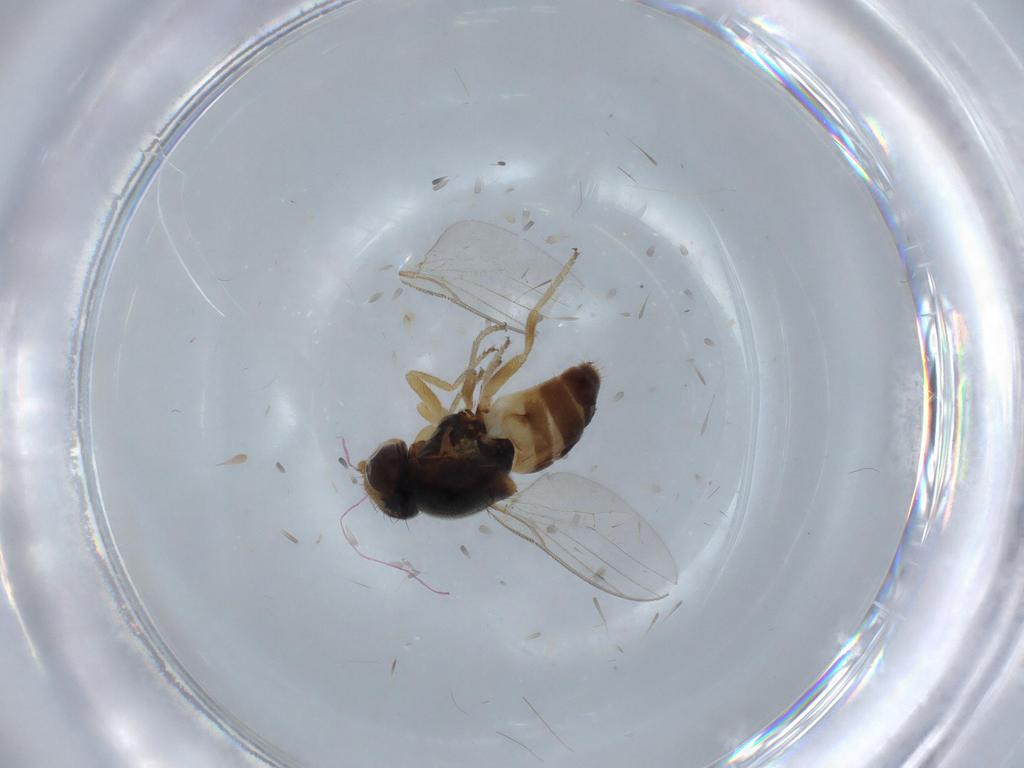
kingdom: Animalia
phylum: Arthropoda
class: Insecta
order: Diptera
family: Chloropidae
